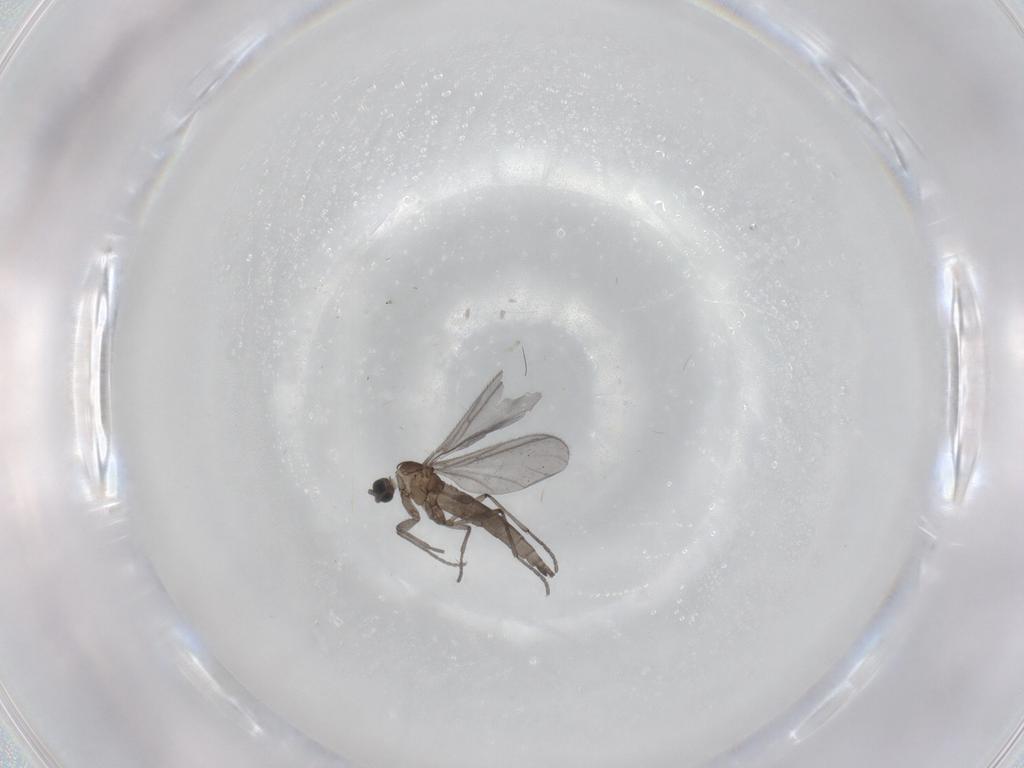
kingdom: Animalia
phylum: Arthropoda
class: Insecta
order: Diptera
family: Sciaridae
